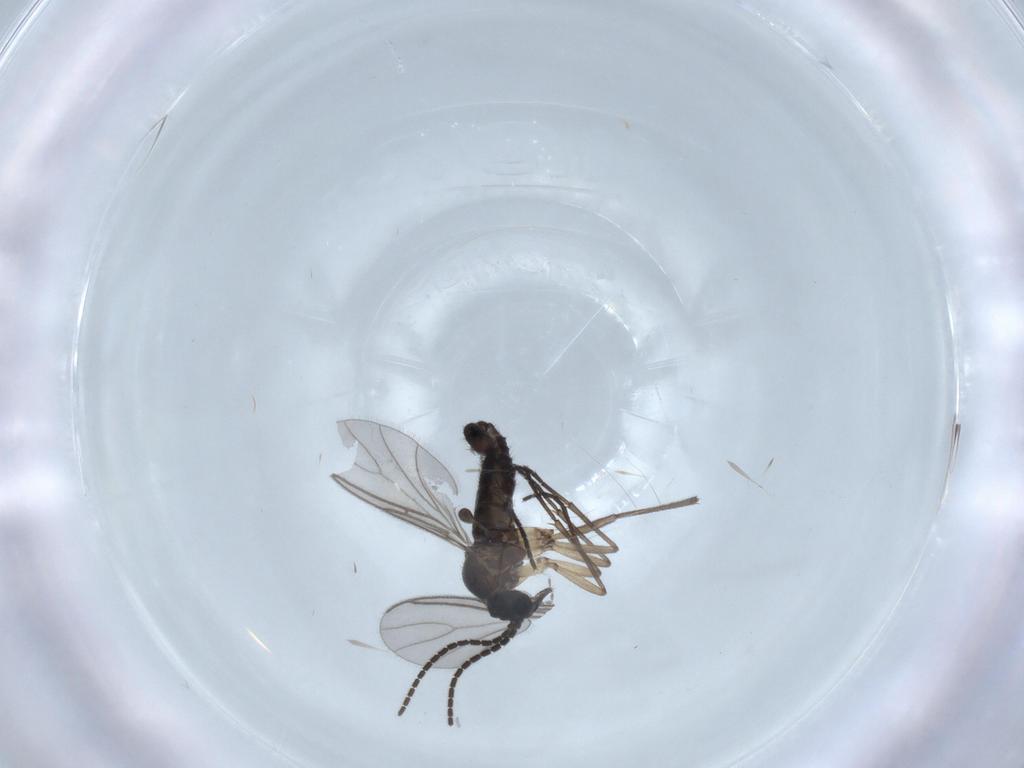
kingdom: Animalia
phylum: Arthropoda
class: Insecta
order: Diptera
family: Sciaridae
